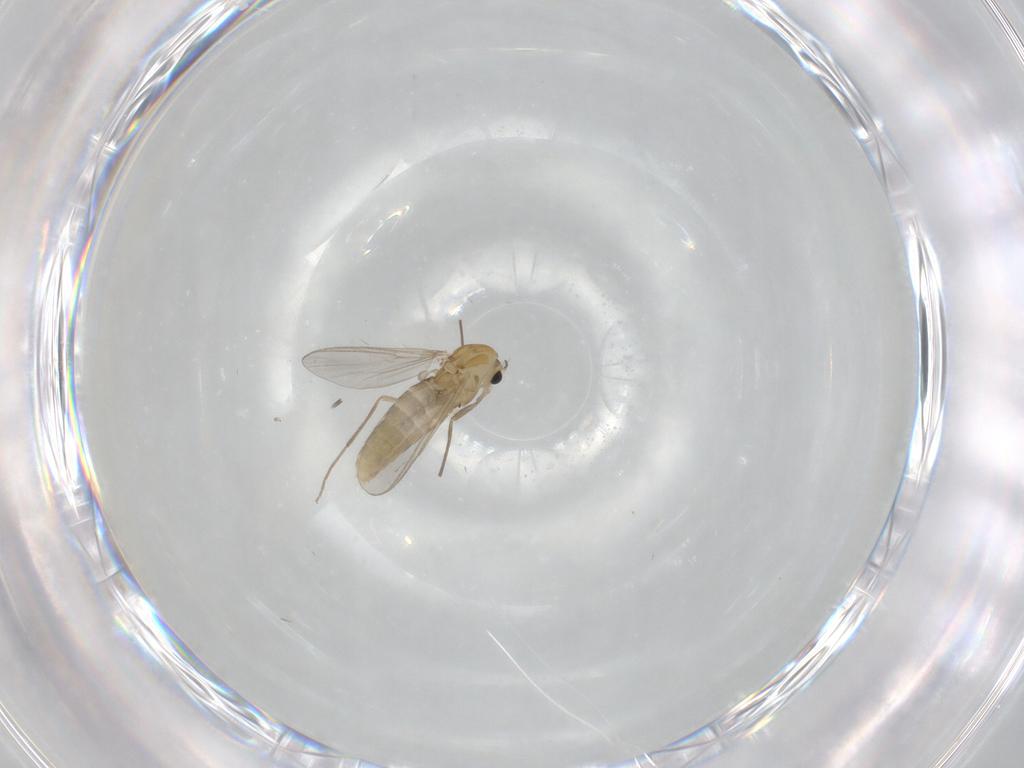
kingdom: Animalia
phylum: Arthropoda
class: Insecta
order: Diptera
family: Chironomidae
